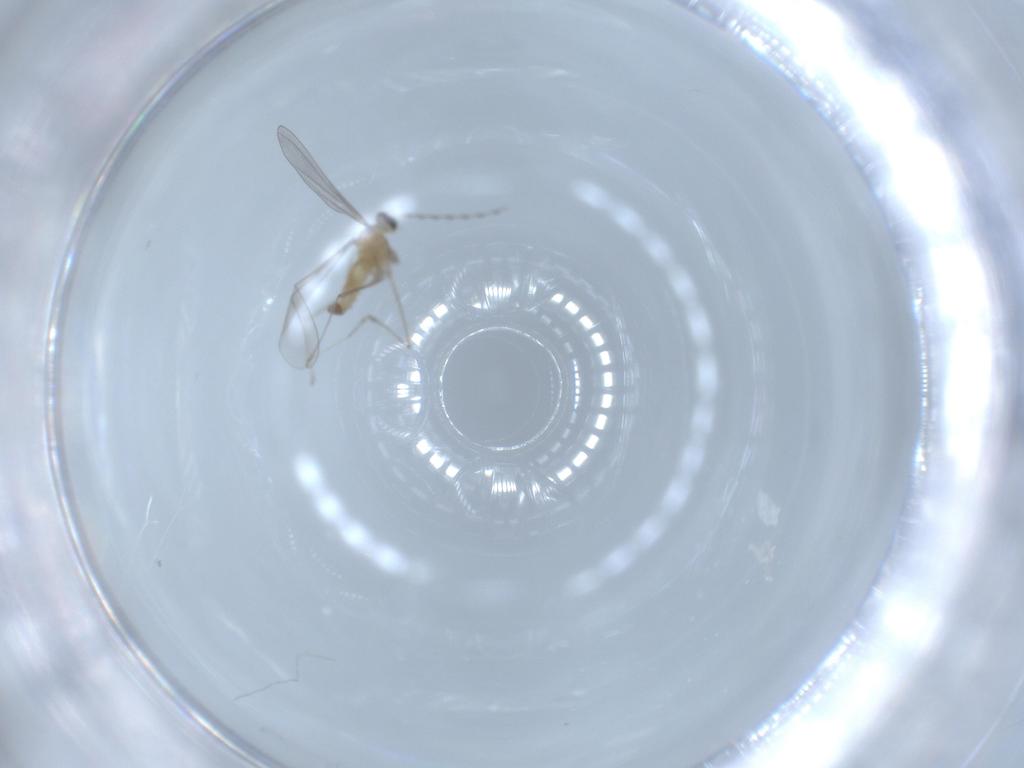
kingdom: Animalia
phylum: Arthropoda
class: Insecta
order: Diptera
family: Cecidomyiidae
